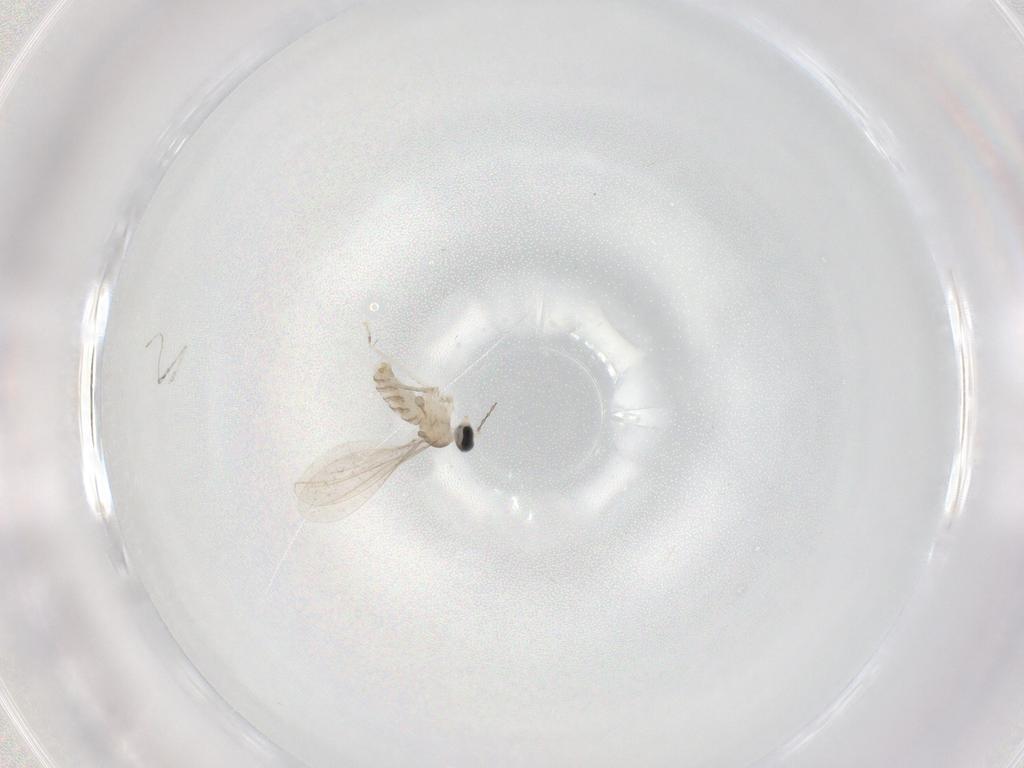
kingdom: Animalia
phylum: Arthropoda
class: Insecta
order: Diptera
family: Cecidomyiidae
